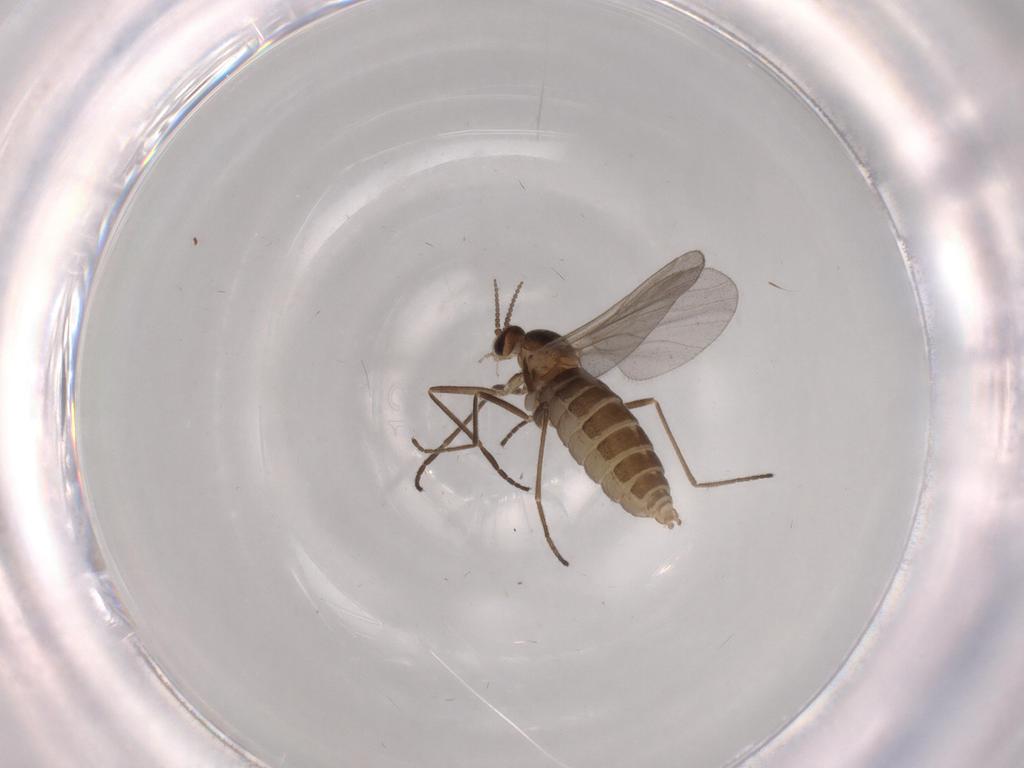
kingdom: Animalia
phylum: Arthropoda
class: Insecta
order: Diptera
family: Cecidomyiidae
